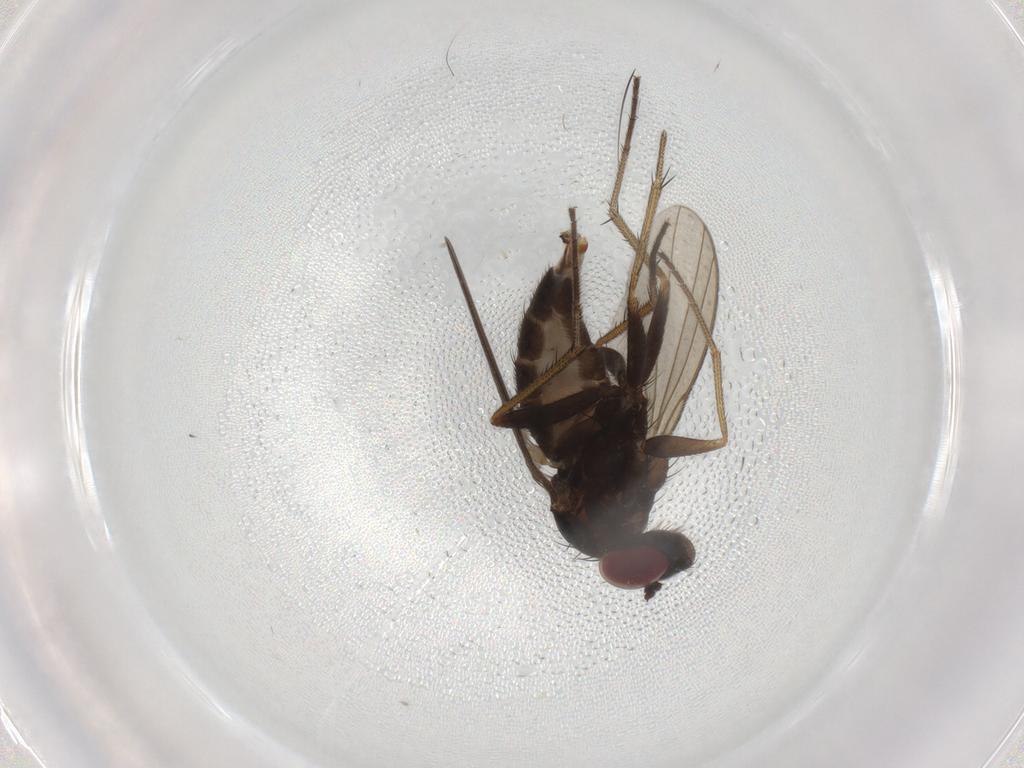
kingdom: Animalia
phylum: Arthropoda
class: Insecta
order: Diptera
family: Dolichopodidae
